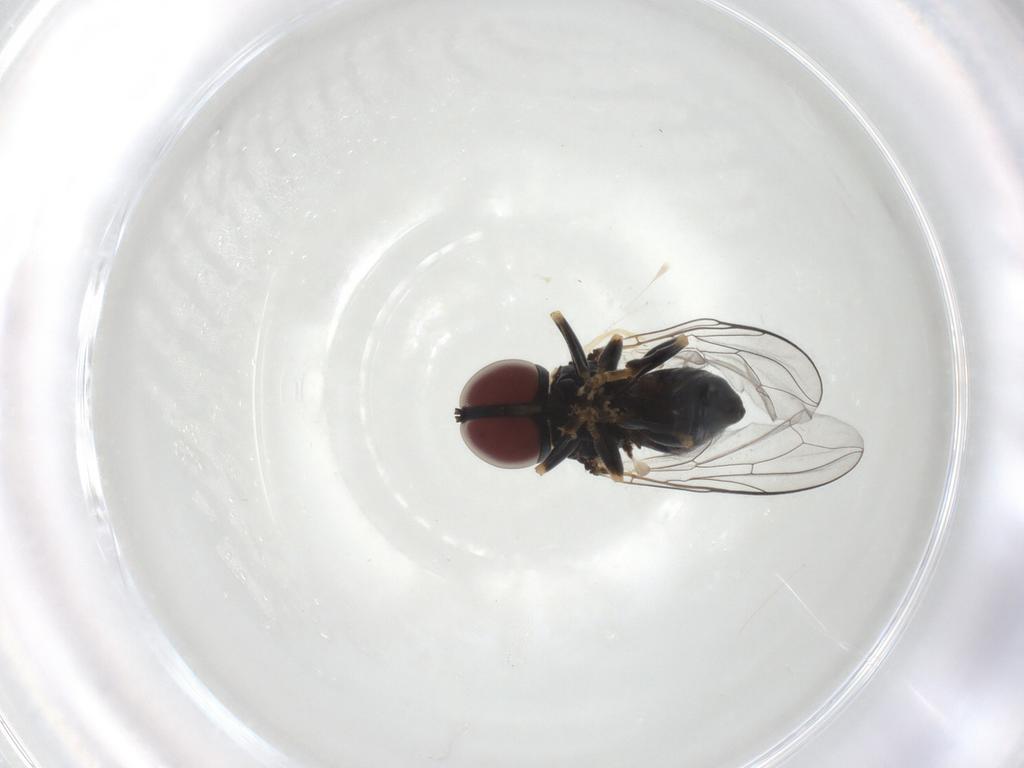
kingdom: Animalia
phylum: Arthropoda
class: Insecta
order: Diptera
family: Pipunculidae
